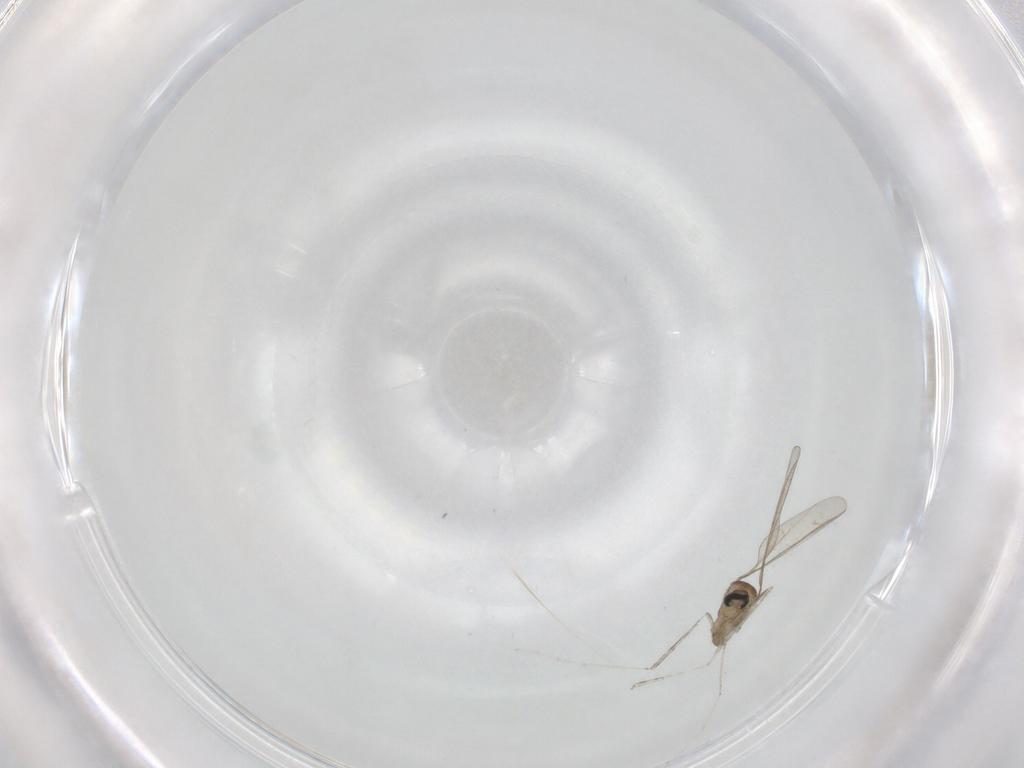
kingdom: Animalia
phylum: Arthropoda
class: Insecta
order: Diptera
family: Cecidomyiidae
